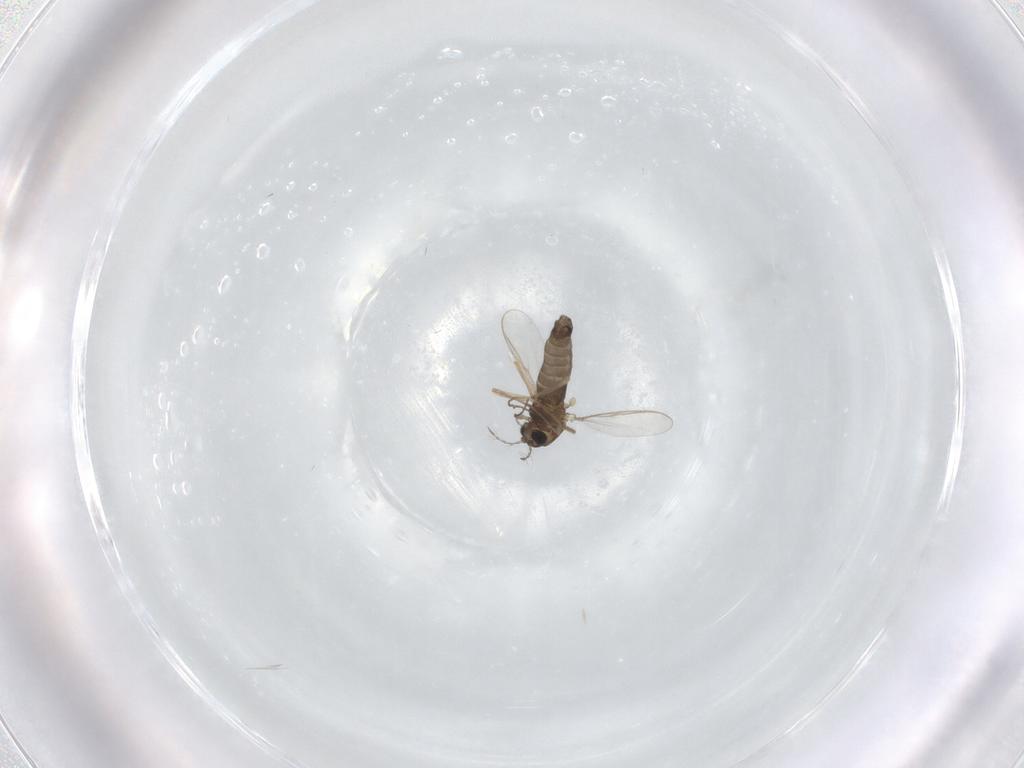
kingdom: Animalia
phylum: Arthropoda
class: Insecta
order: Diptera
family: Chironomidae
